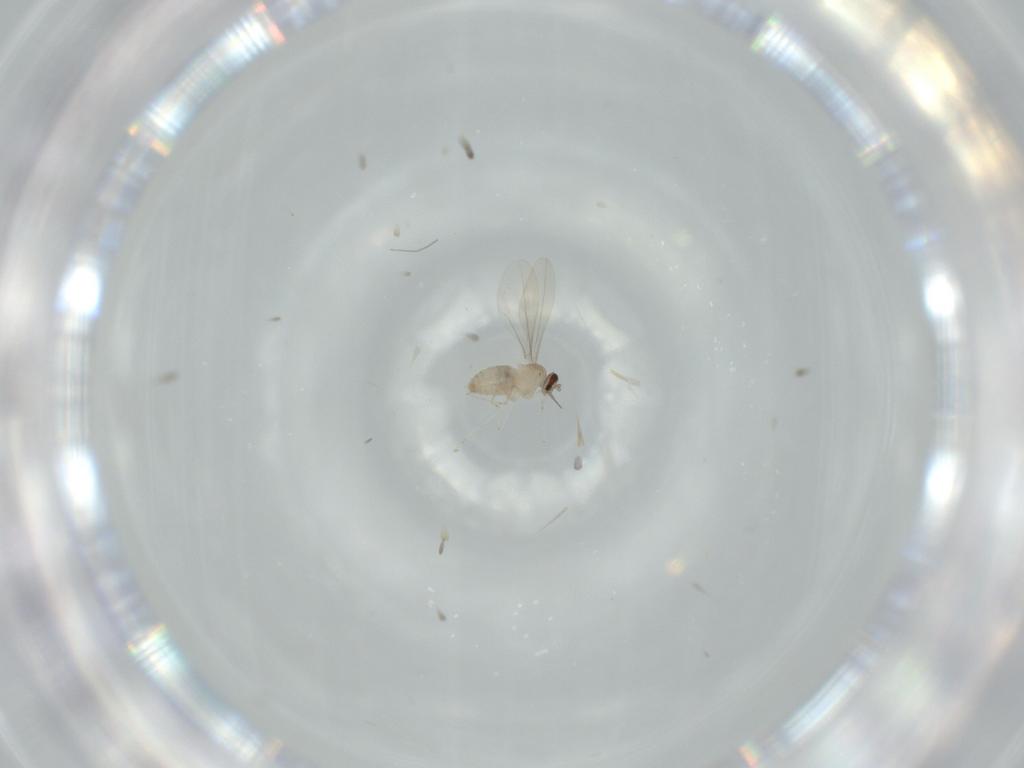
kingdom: Animalia
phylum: Arthropoda
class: Insecta
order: Diptera
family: Cecidomyiidae
